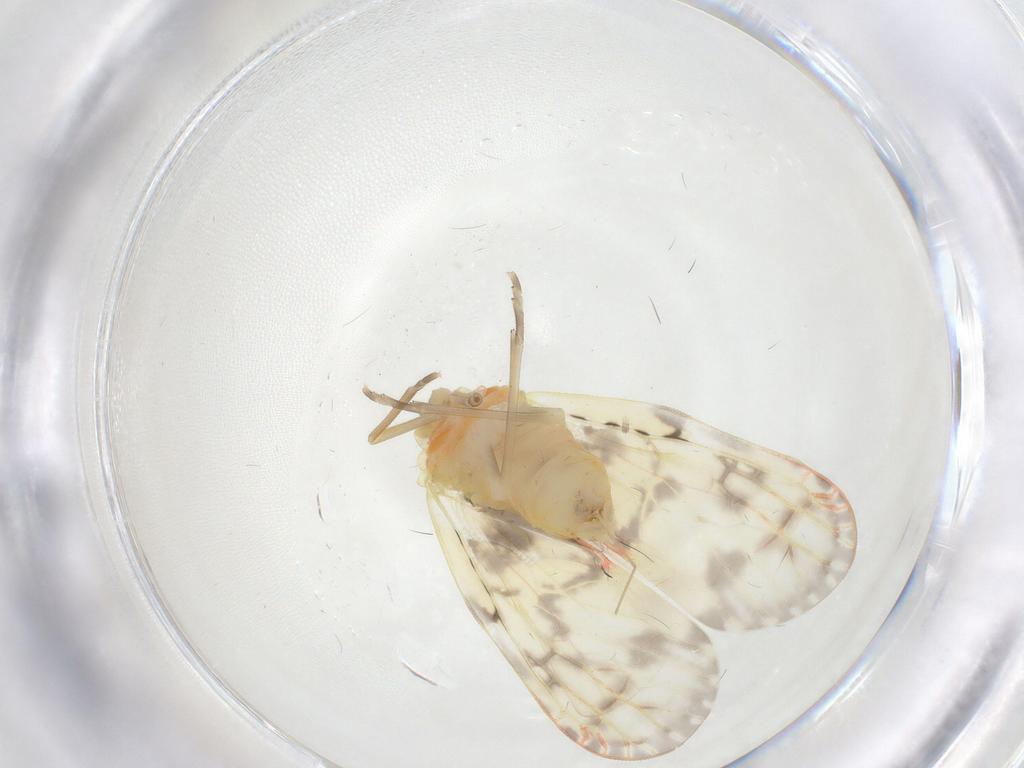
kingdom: Animalia
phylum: Arthropoda
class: Insecta
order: Hemiptera
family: Derbidae
